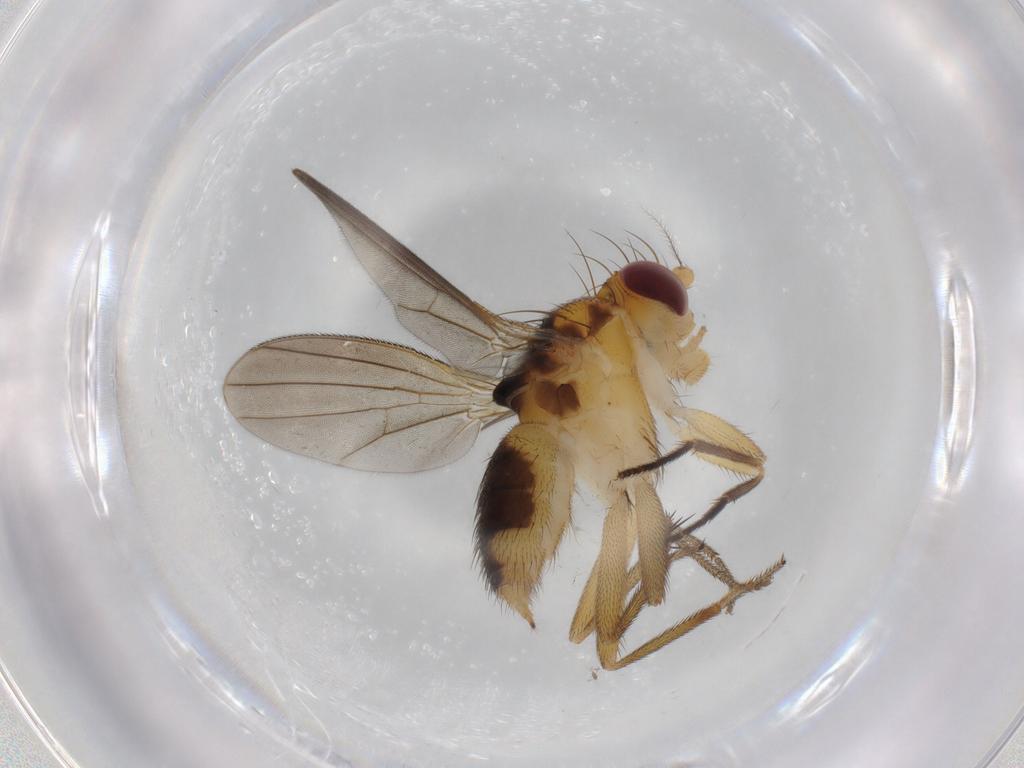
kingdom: Animalia
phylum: Arthropoda
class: Insecta
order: Diptera
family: Clusiidae
